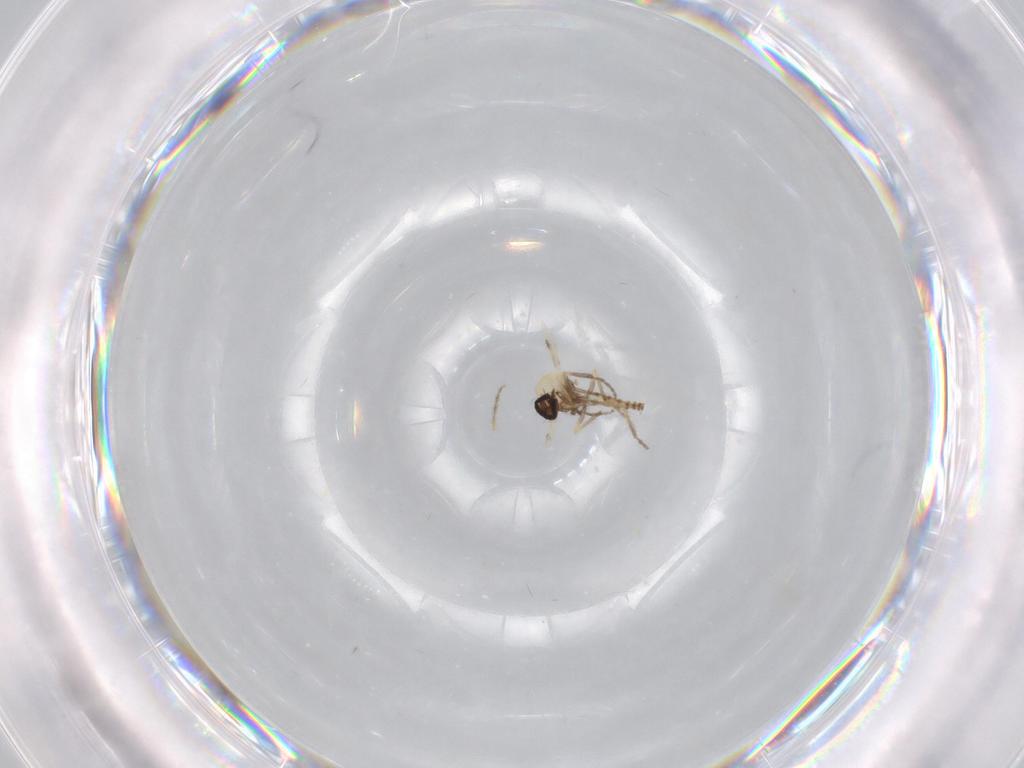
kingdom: Animalia
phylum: Arthropoda
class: Insecta
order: Diptera
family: Ceratopogonidae
